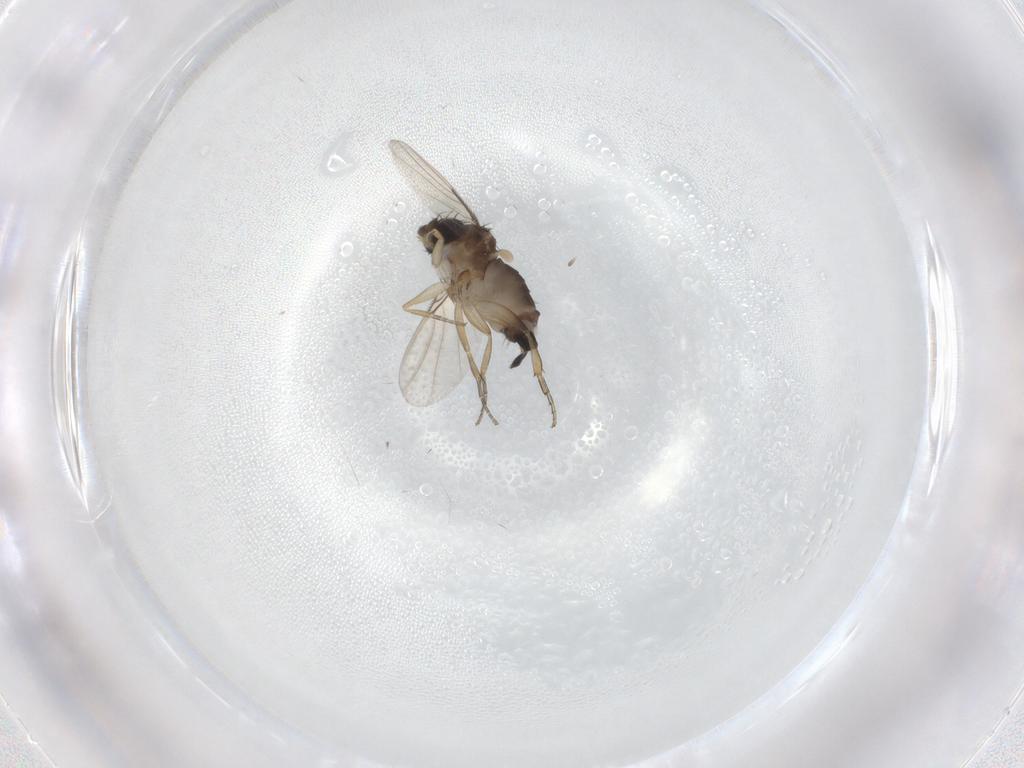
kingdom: Animalia
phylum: Arthropoda
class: Insecta
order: Diptera
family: Phoridae
